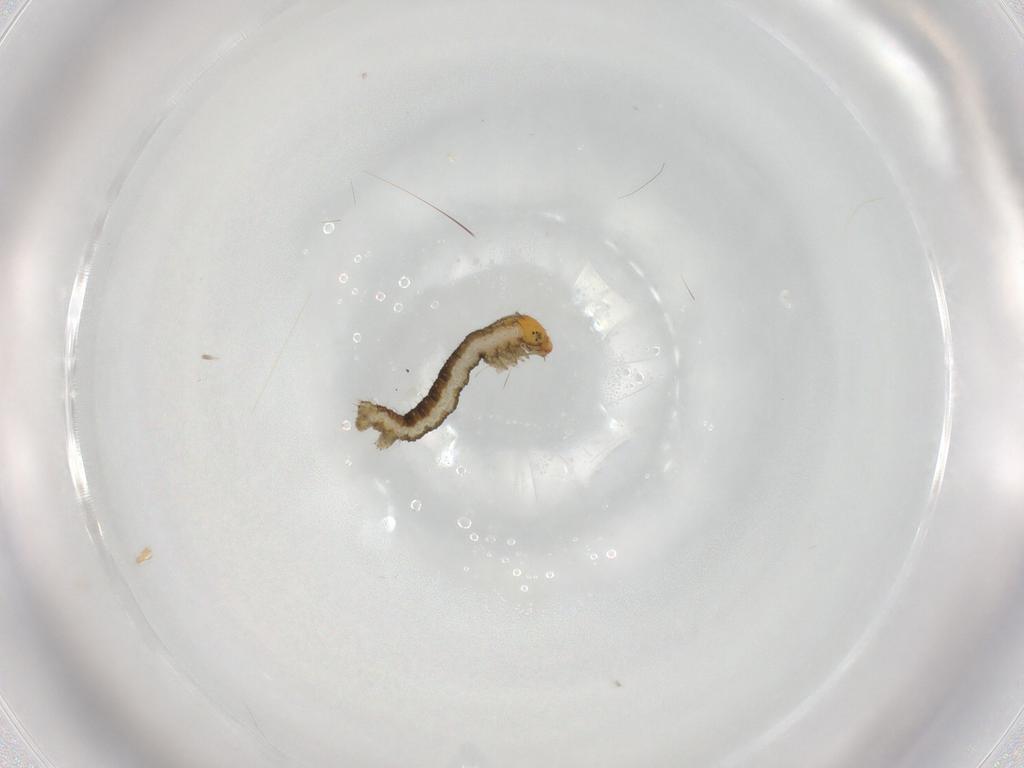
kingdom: Animalia
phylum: Arthropoda
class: Insecta
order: Lepidoptera
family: Geometridae
